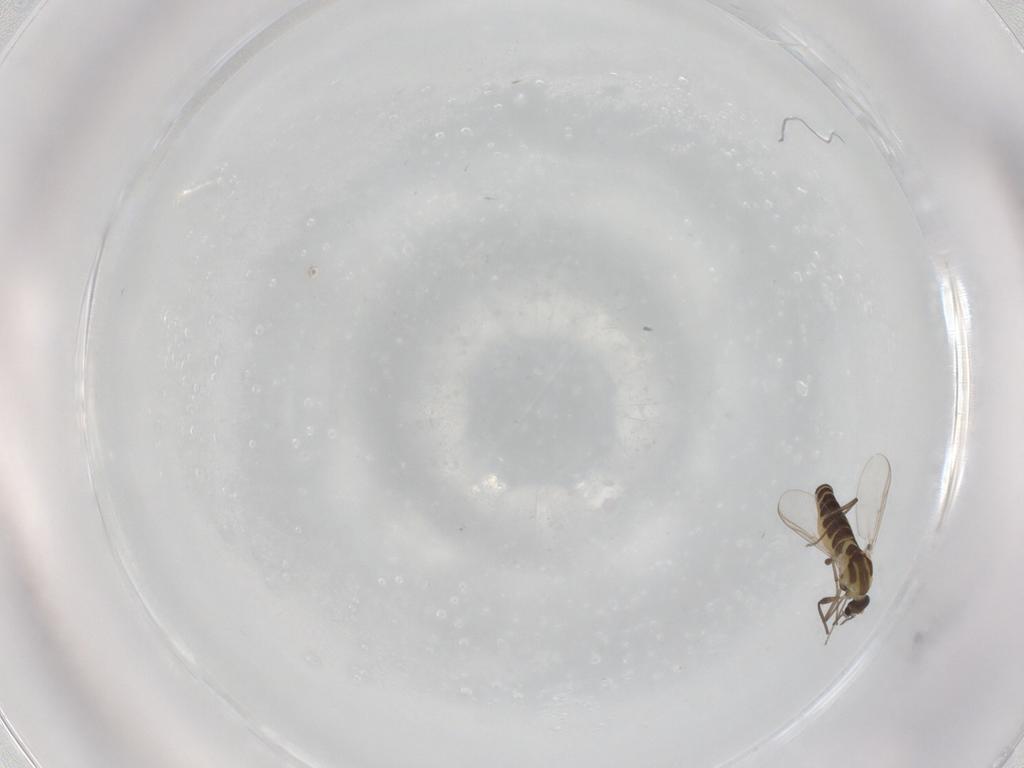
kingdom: Animalia
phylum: Arthropoda
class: Insecta
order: Diptera
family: Chironomidae
